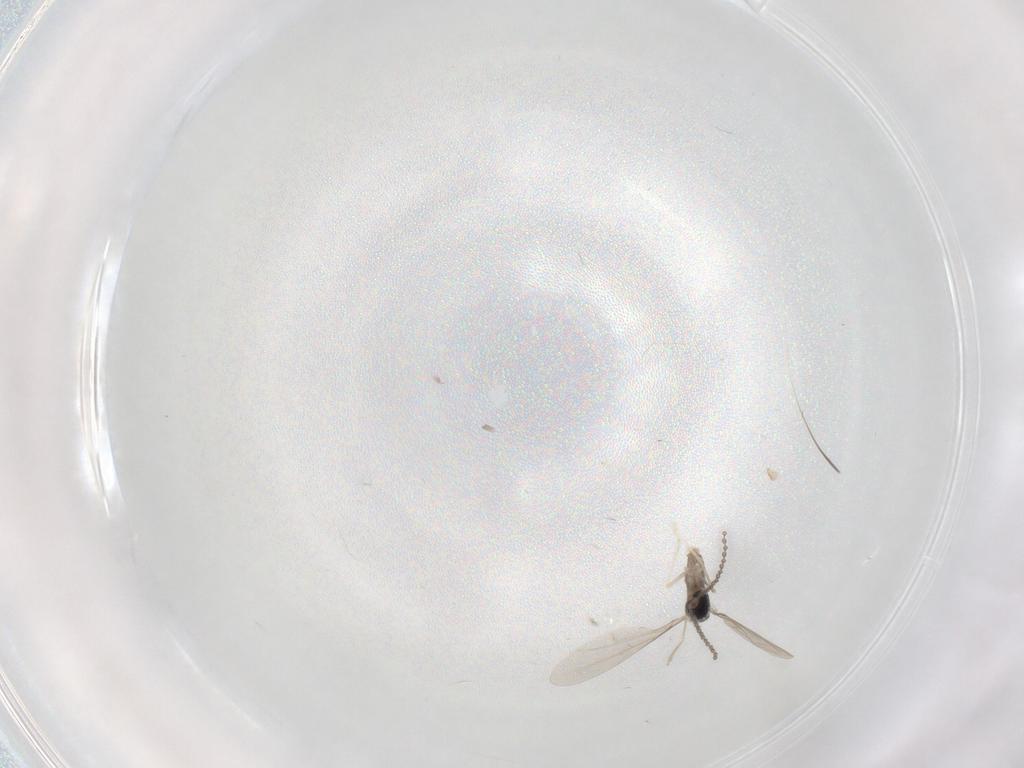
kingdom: Animalia
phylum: Arthropoda
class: Insecta
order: Diptera
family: Cecidomyiidae
